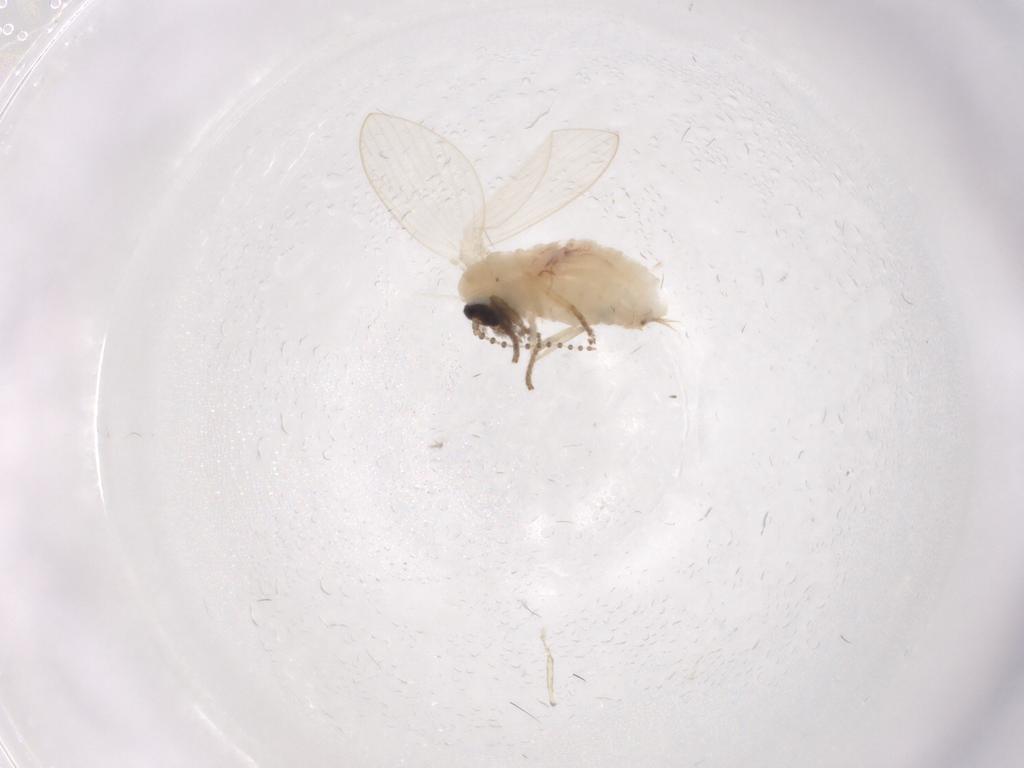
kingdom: Animalia
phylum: Arthropoda
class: Insecta
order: Diptera
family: Psychodidae
